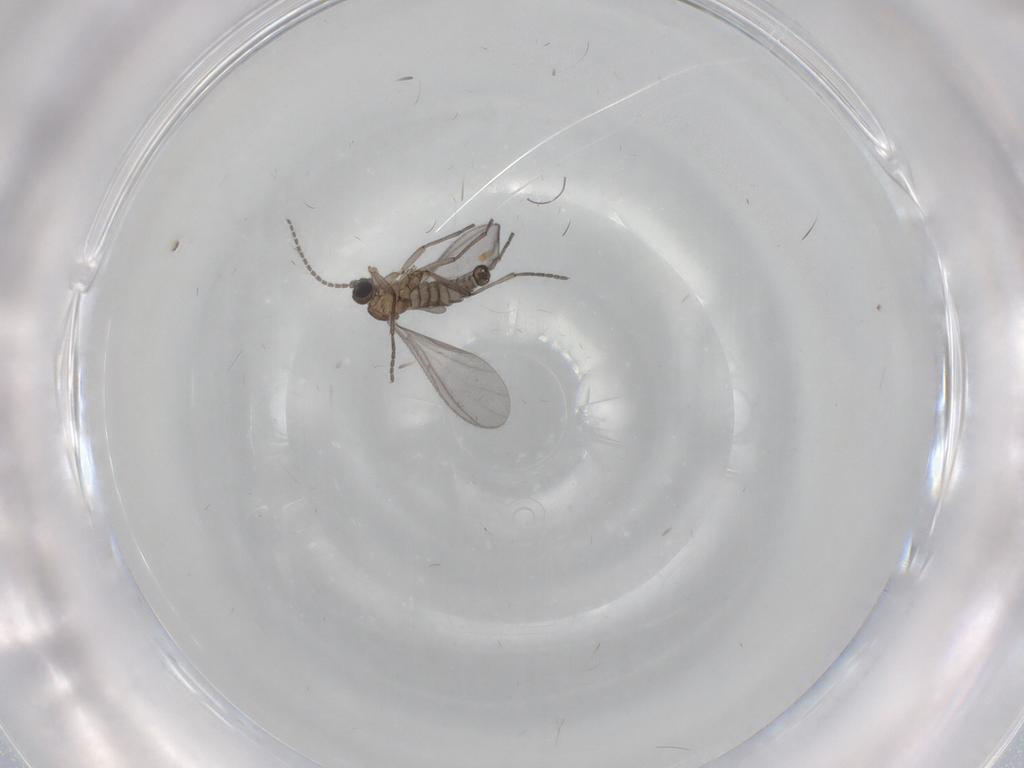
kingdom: Animalia
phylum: Arthropoda
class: Insecta
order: Diptera
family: Sciaridae
